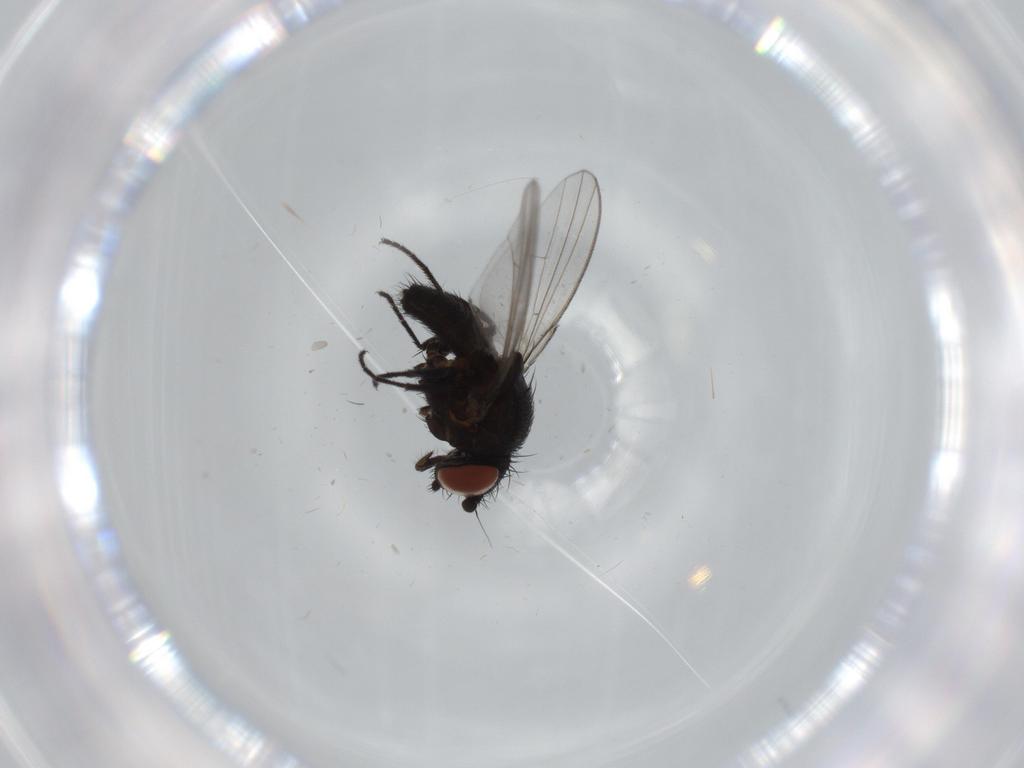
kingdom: Animalia
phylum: Arthropoda
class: Insecta
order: Diptera
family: Milichiidae
